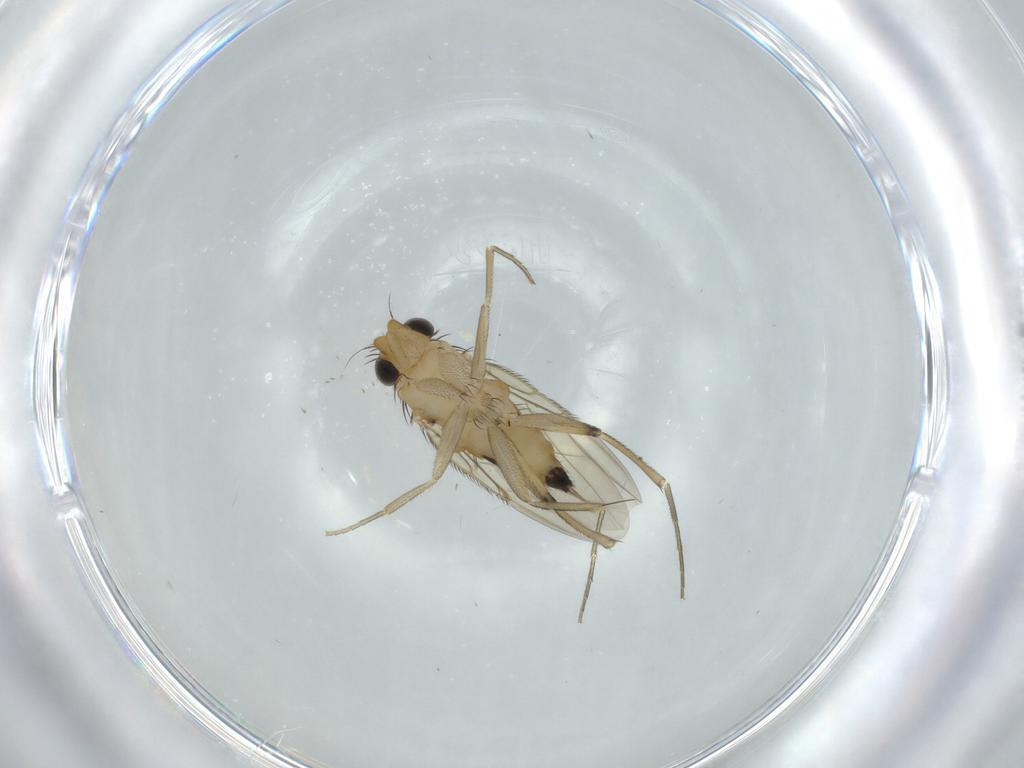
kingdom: Animalia
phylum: Arthropoda
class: Insecta
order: Diptera
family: Phoridae
